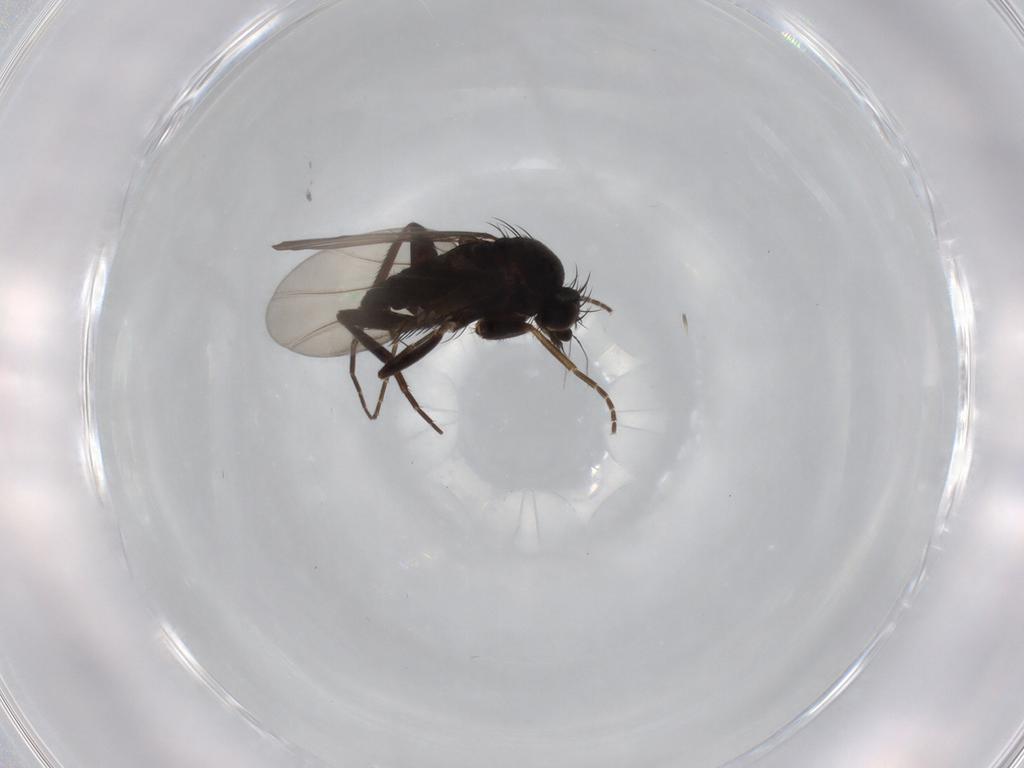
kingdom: Animalia
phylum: Arthropoda
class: Insecta
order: Diptera
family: Phoridae
